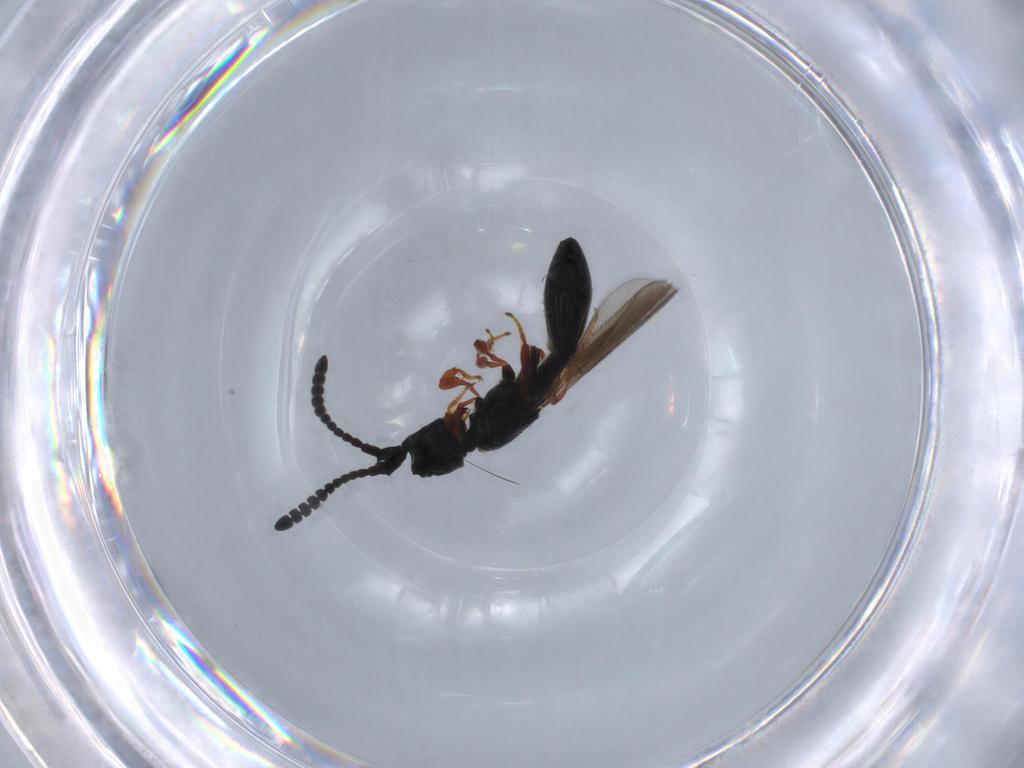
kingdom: Animalia
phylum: Arthropoda
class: Insecta
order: Hymenoptera
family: Diapriidae
